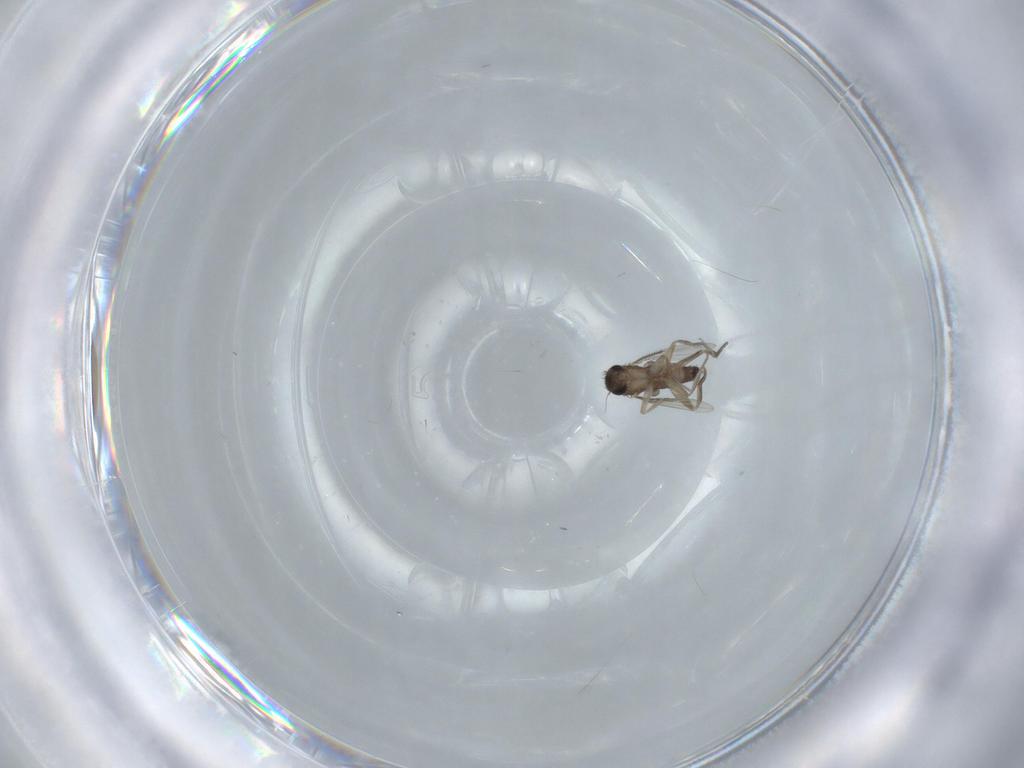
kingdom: Animalia
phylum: Arthropoda
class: Insecta
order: Diptera
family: Phoridae
